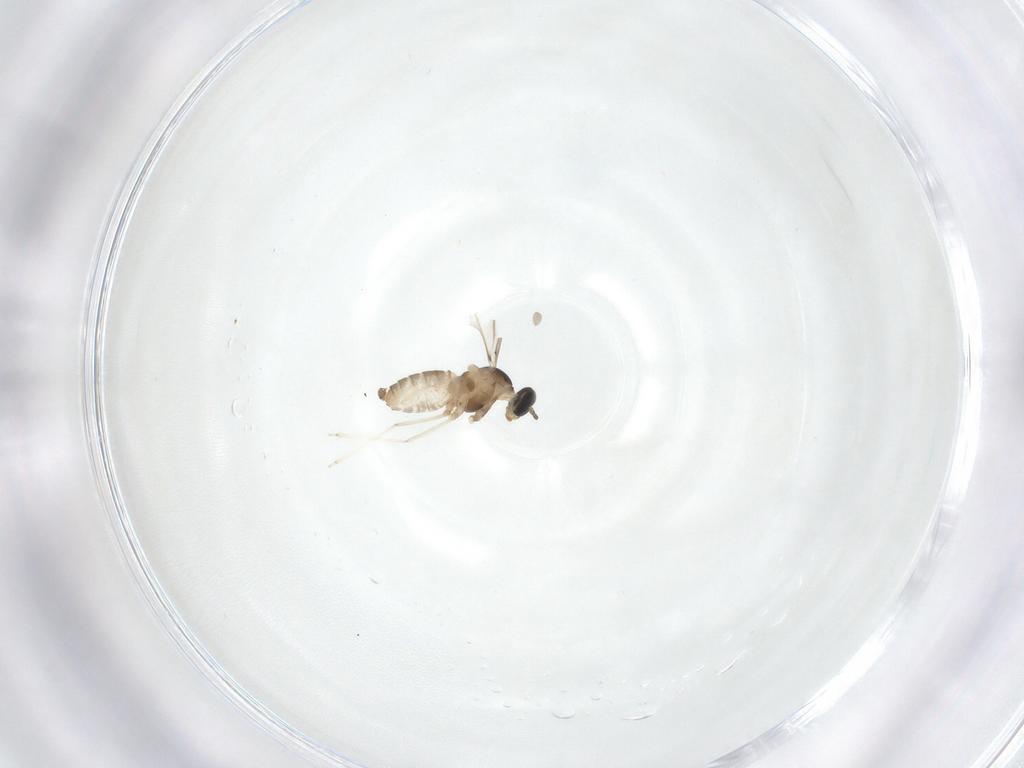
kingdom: Animalia
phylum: Arthropoda
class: Insecta
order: Diptera
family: Cecidomyiidae
